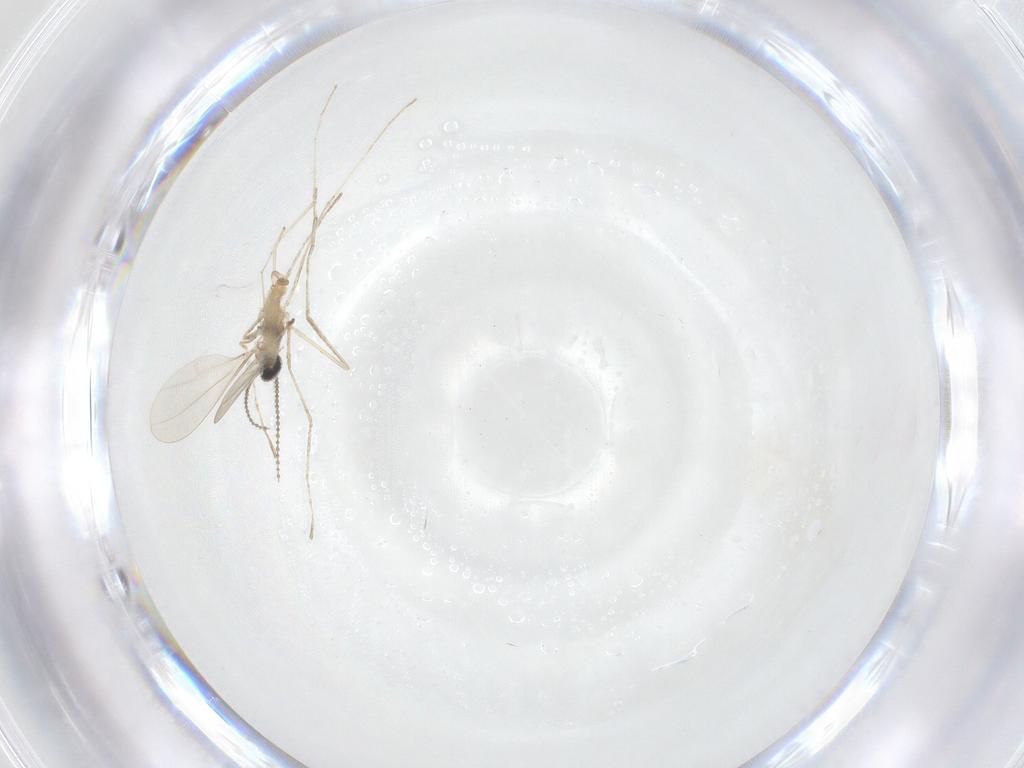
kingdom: Animalia
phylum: Arthropoda
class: Insecta
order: Diptera
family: Cecidomyiidae
